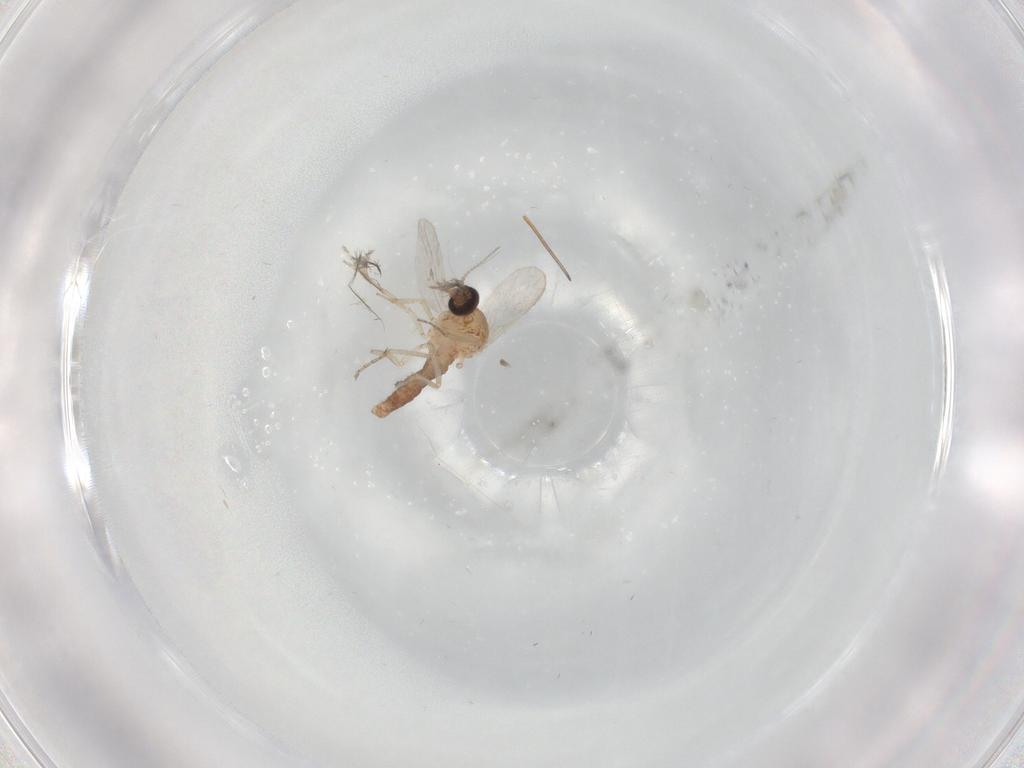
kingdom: Animalia
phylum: Arthropoda
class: Insecta
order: Diptera
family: Ceratopogonidae
